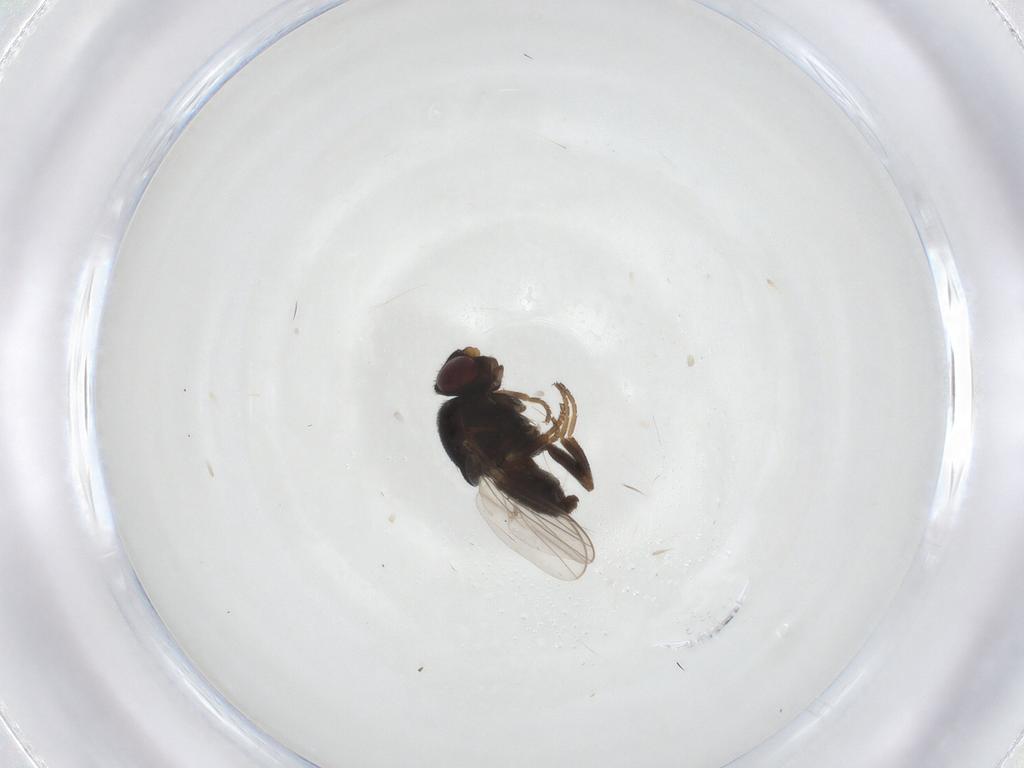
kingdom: Animalia
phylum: Arthropoda
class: Insecta
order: Diptera
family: Chloropidae
